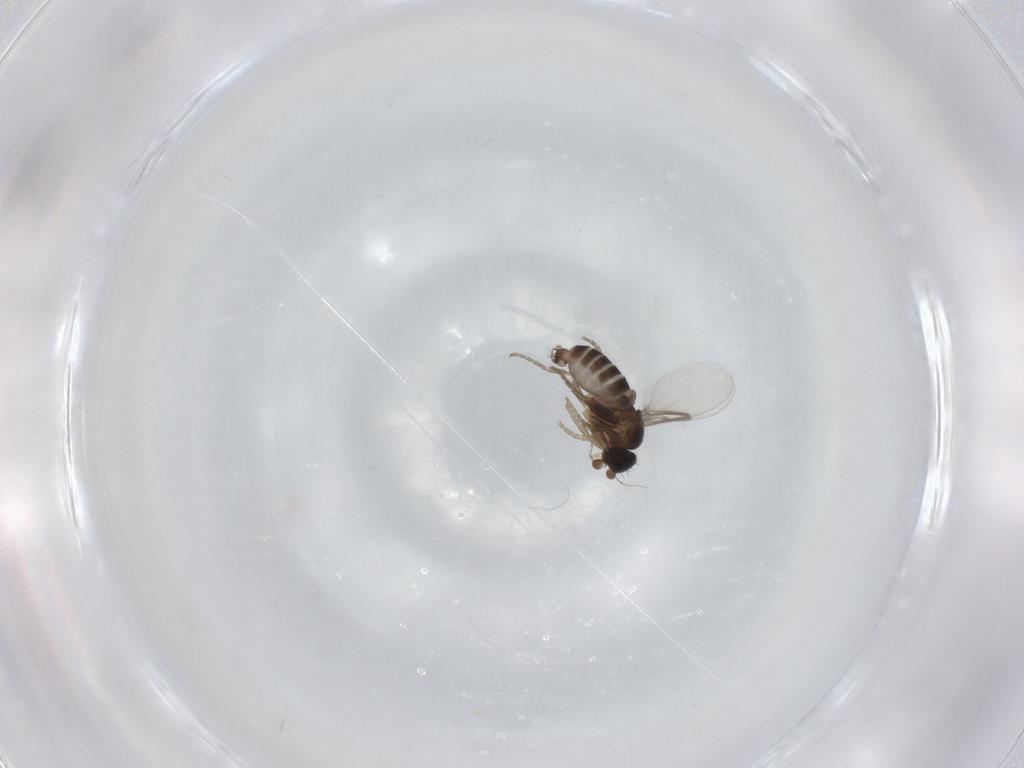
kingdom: Animalia
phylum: Arthropoda
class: Insecta
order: Diptera
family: Phoridae
